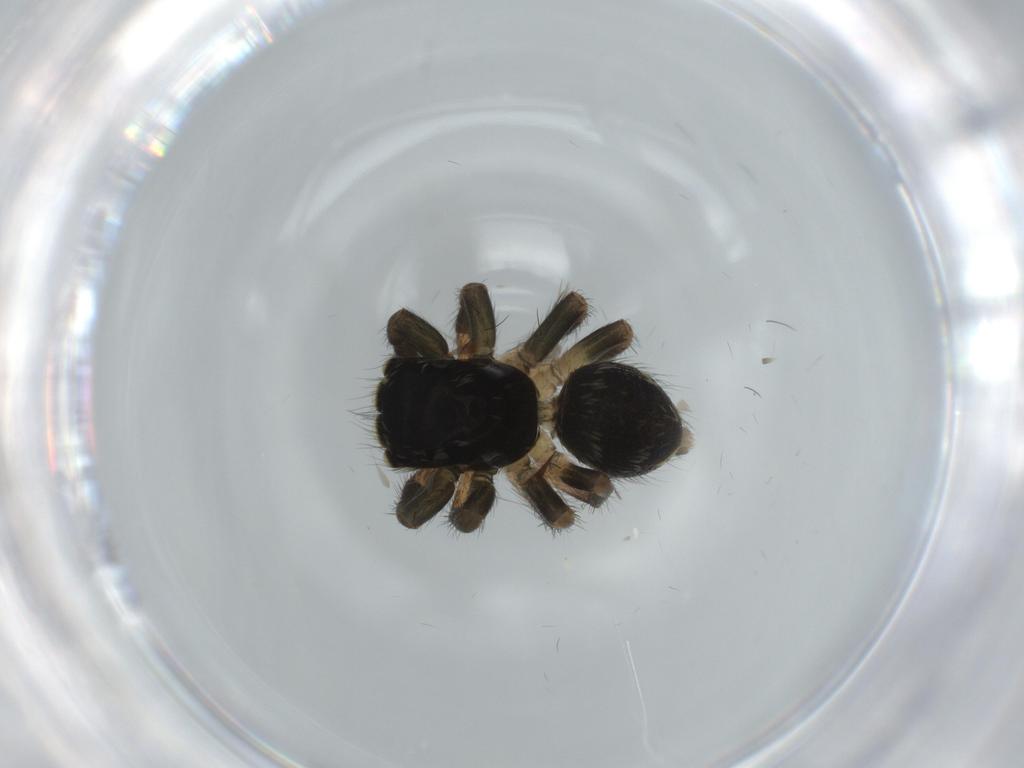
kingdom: Animalia
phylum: Arthropoda
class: Arachnida
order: Araneae
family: Salticidae
